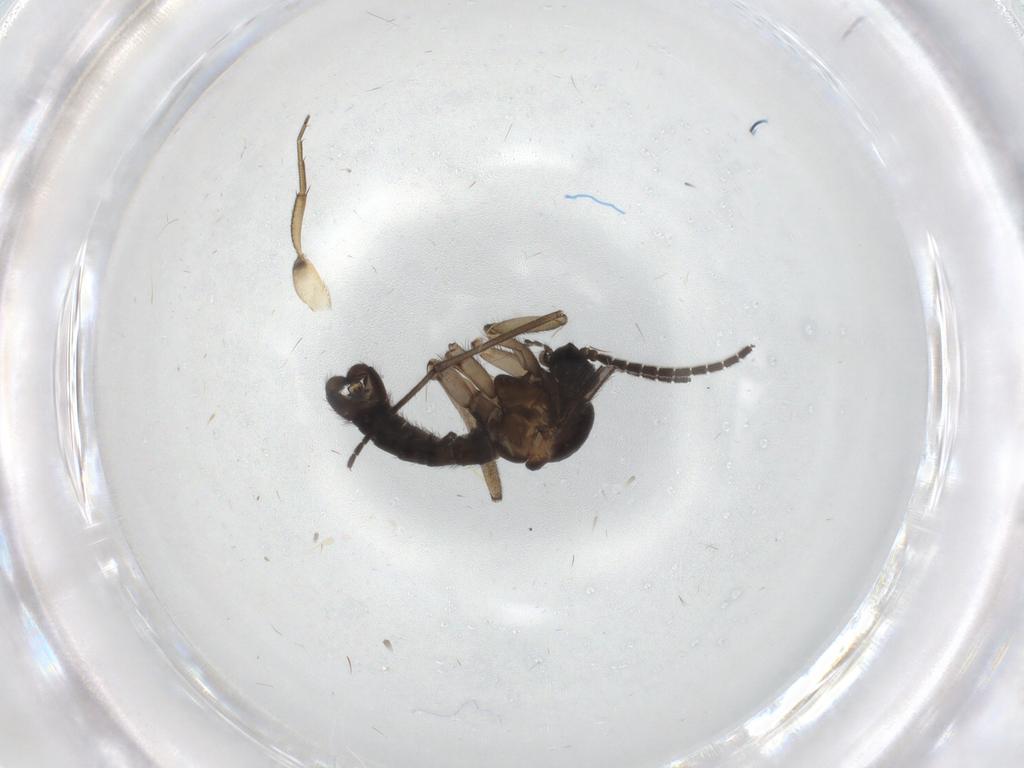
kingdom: Animalia
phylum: Arthropoda
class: Insecta
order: Diptera
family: Sciaridae
